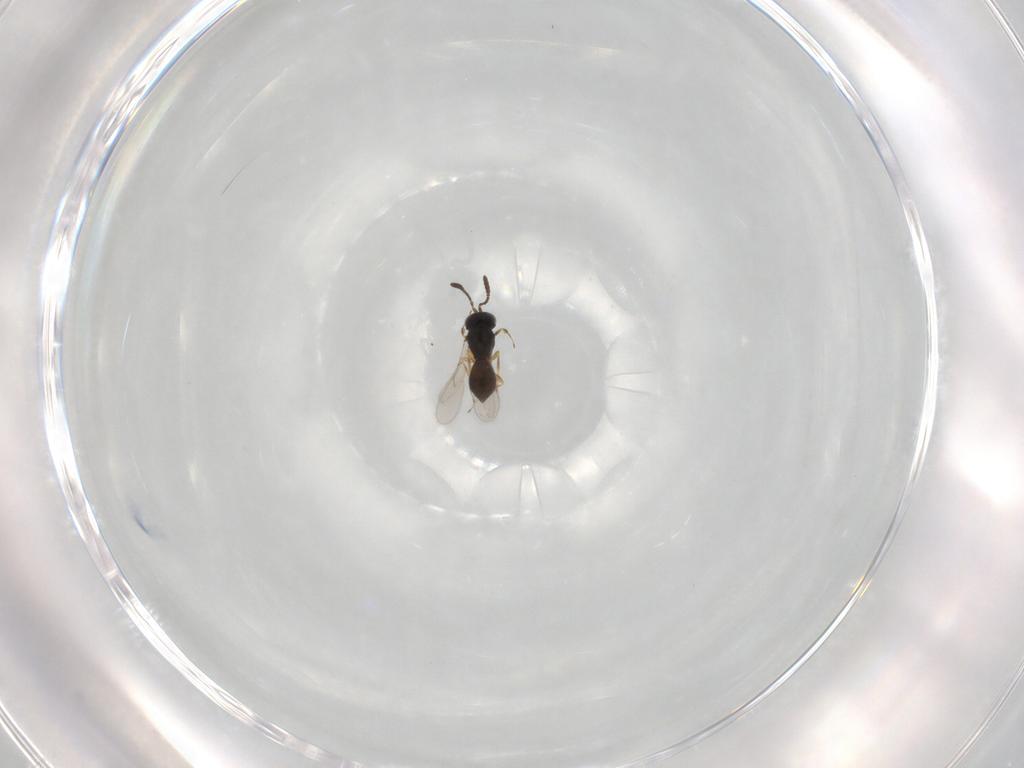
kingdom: Animalia
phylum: Arthropoda
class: Insecta
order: Hymenoptera
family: Scelionidae
